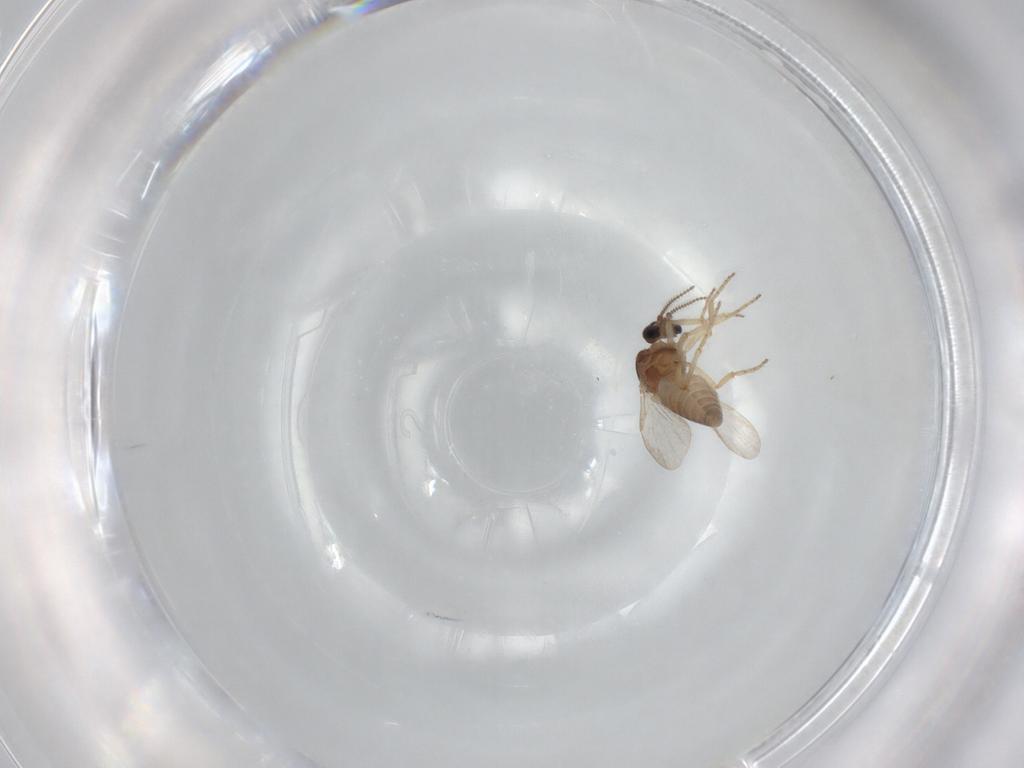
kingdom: Animalia
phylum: Arthropoda
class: Insecta
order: Diptera
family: Ceratopogonidae
